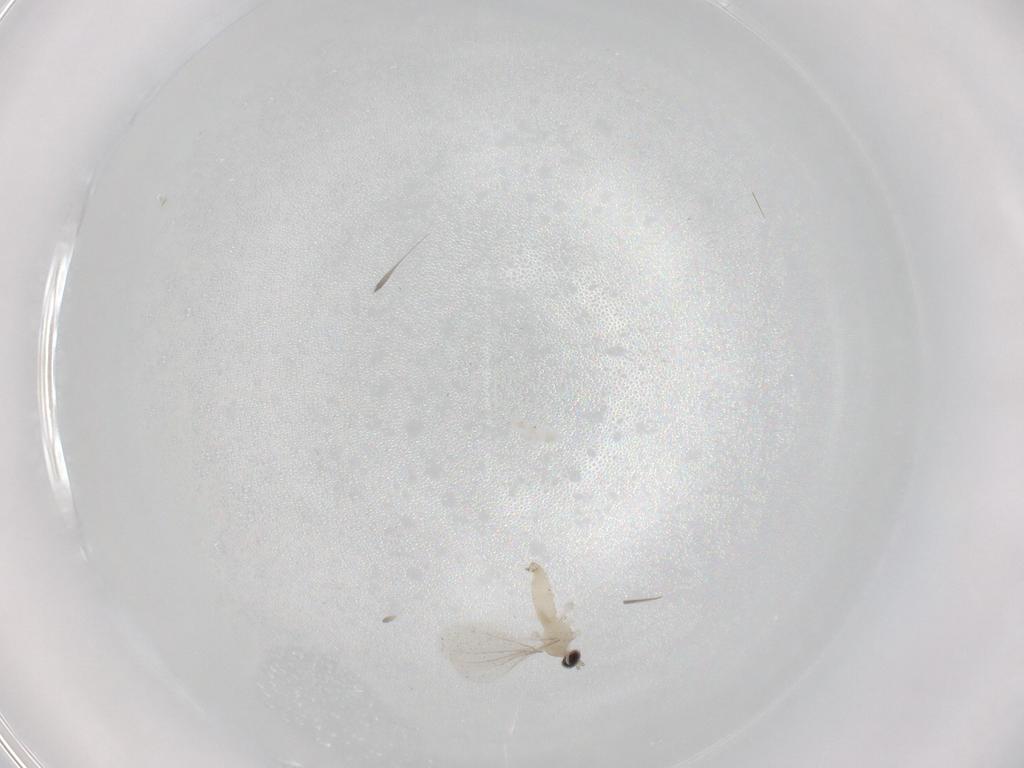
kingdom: Animalia
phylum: Arthropoda
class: Insecta
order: Diptera
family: Cecidomyiidae
